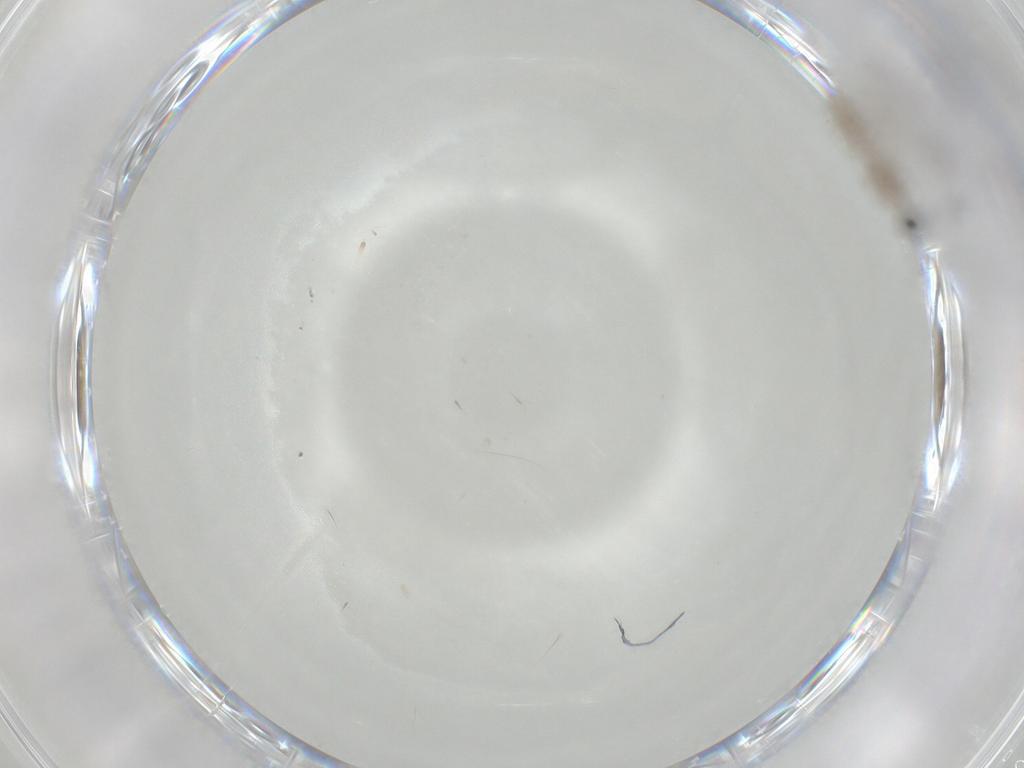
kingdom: Animalia
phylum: Arthropoda
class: Insecta
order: Diptera
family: Cecidomyiidae
